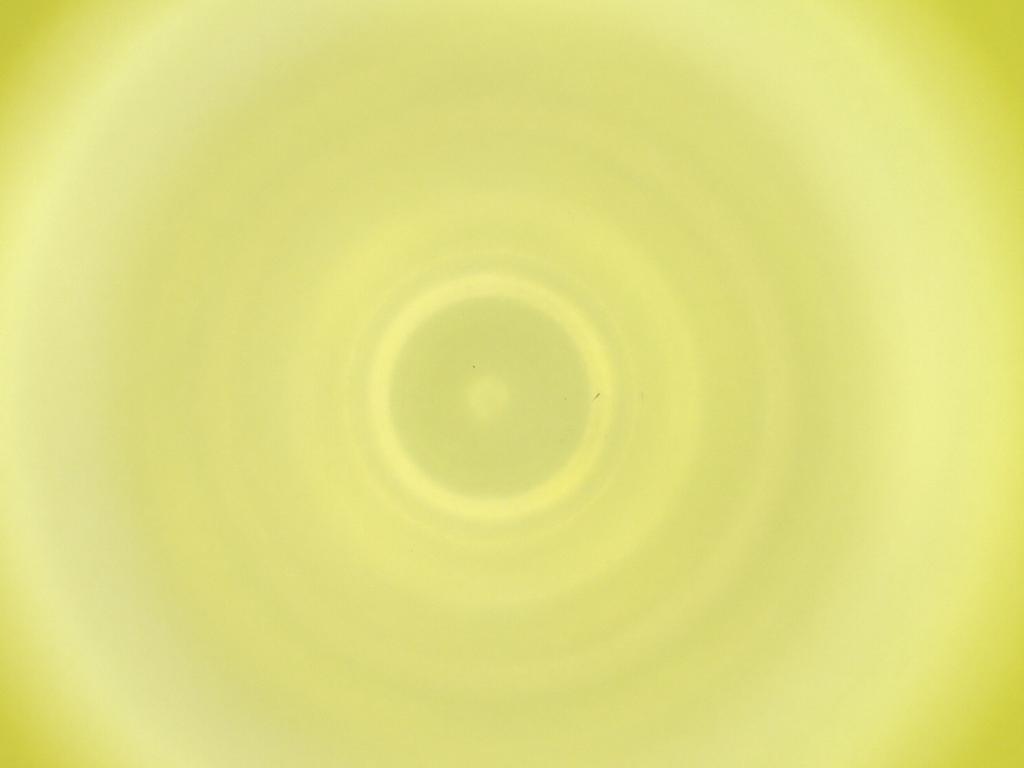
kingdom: Animalia
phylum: Arthropoda
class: Insecta
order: Diptera
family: Cecidomyiidae
